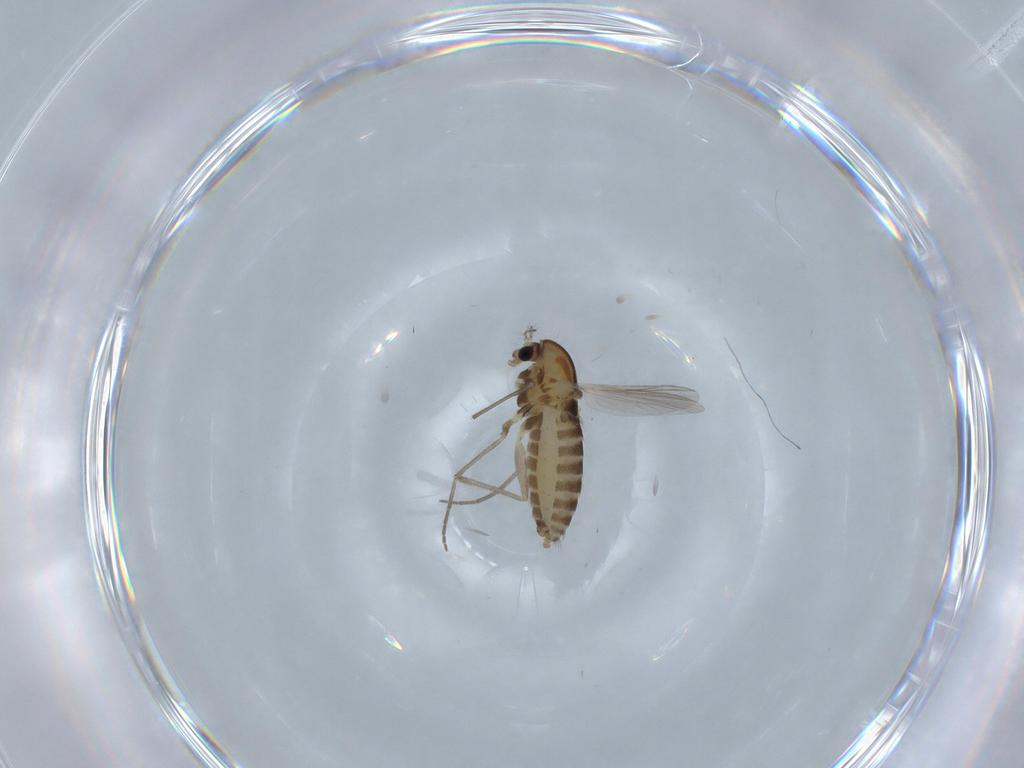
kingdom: Animalia
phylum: Arthropoda
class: Insecta
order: Diptera
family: Chironomidae
